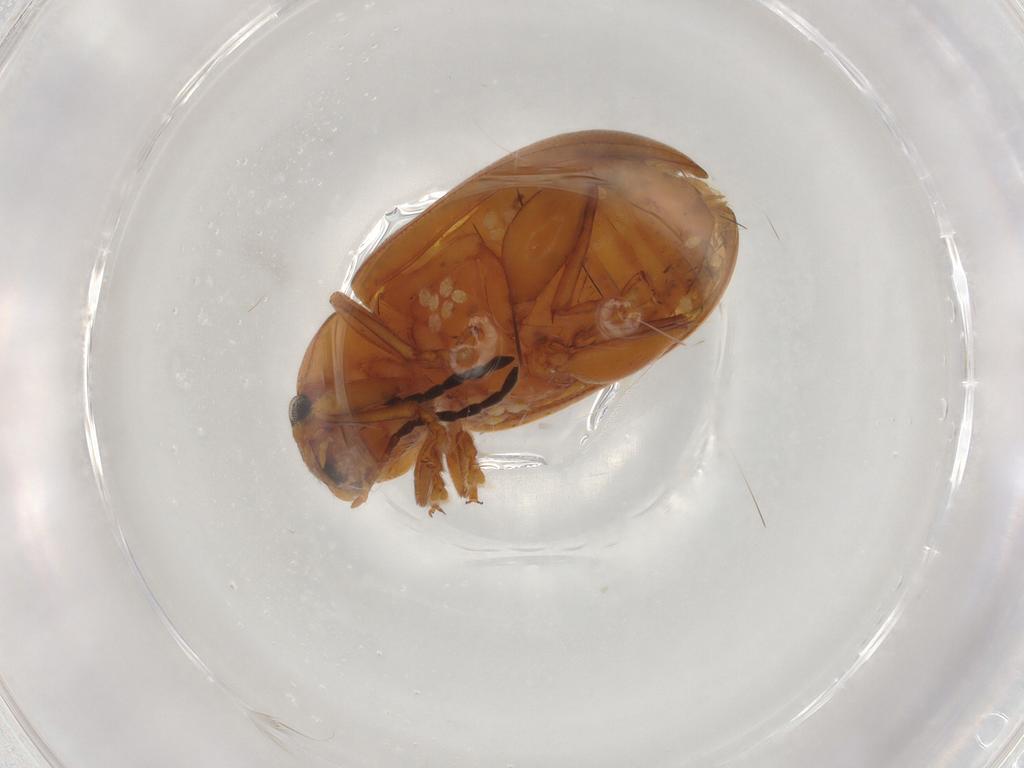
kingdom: Animalia
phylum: Arthropoda
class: Insecta
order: Coleoptera
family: Chrysomelidae
